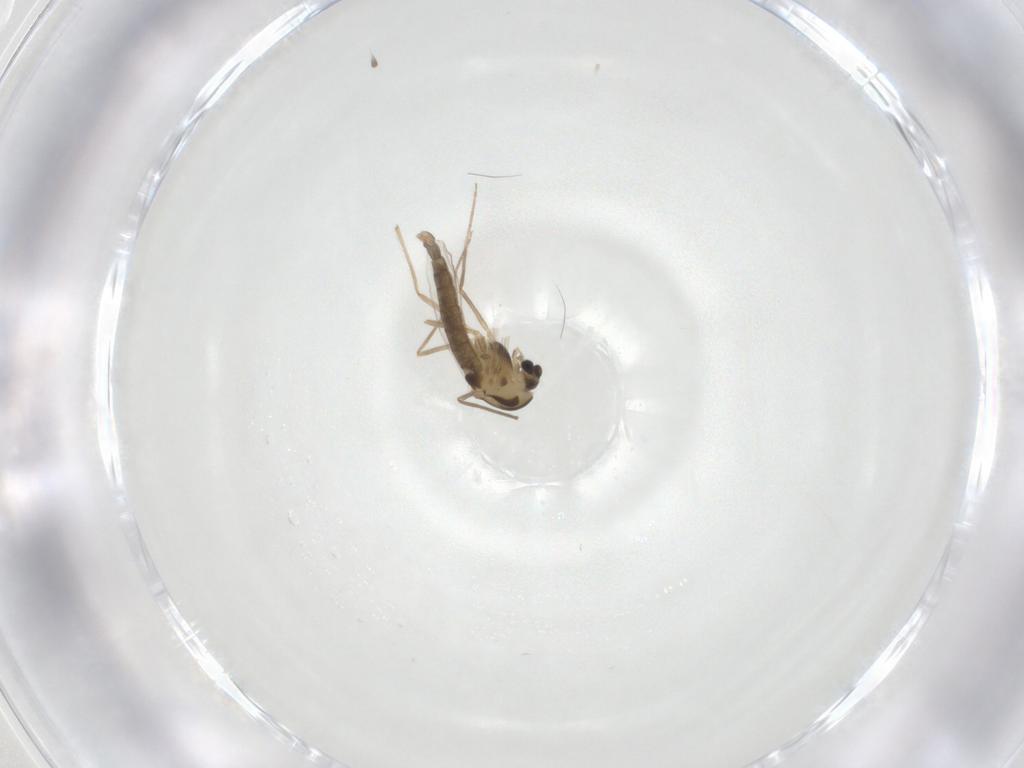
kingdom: Animalia
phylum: Arthropoda
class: Insecta
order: Diptera
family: Chironomidae
